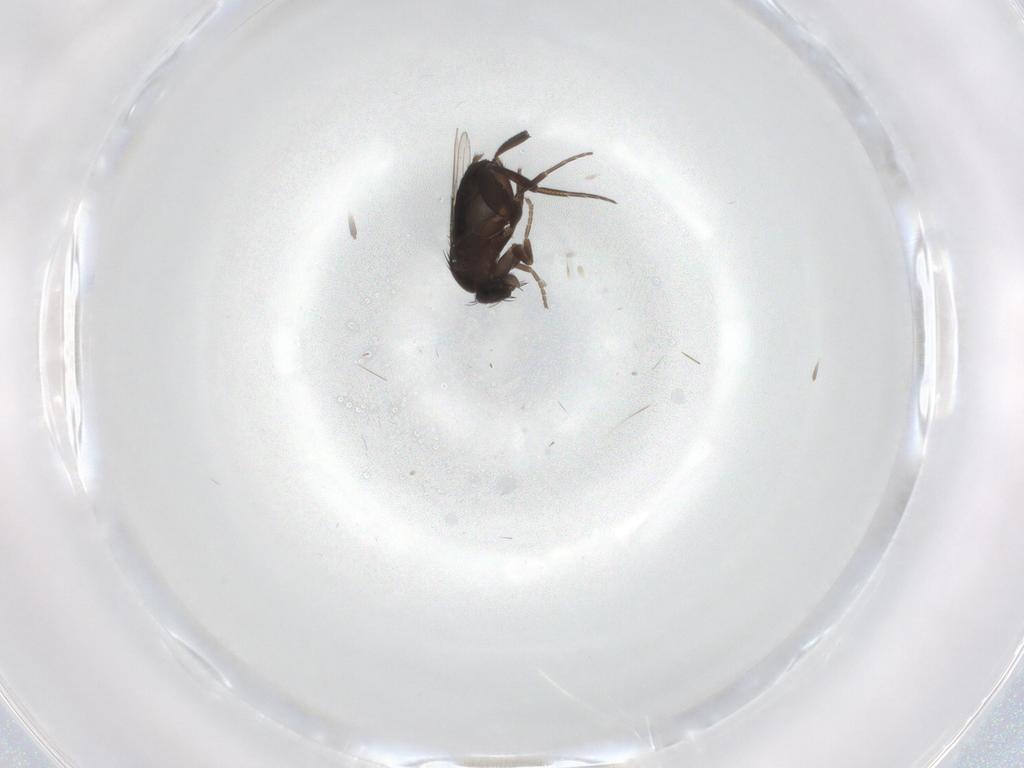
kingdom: Animalia
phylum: Arthropoda
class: Insecta
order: Diptera
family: Phoridae
